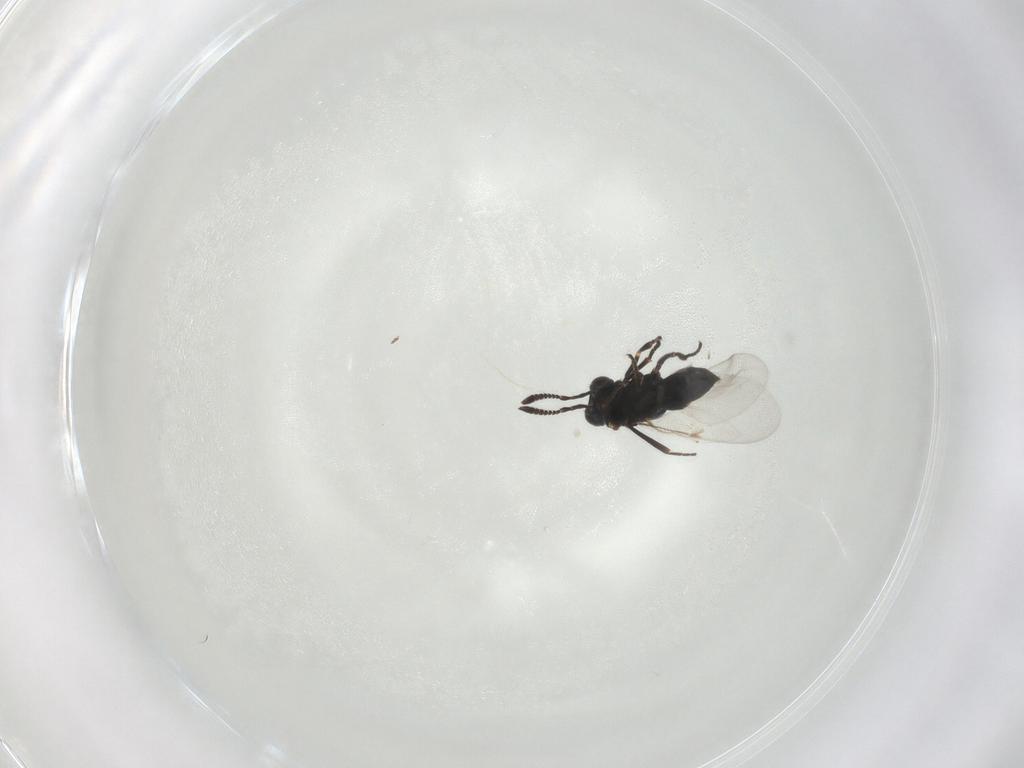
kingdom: Animalia
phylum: Arthropoda
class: Insecta
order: Hymenoptera
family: Encyrtidae
